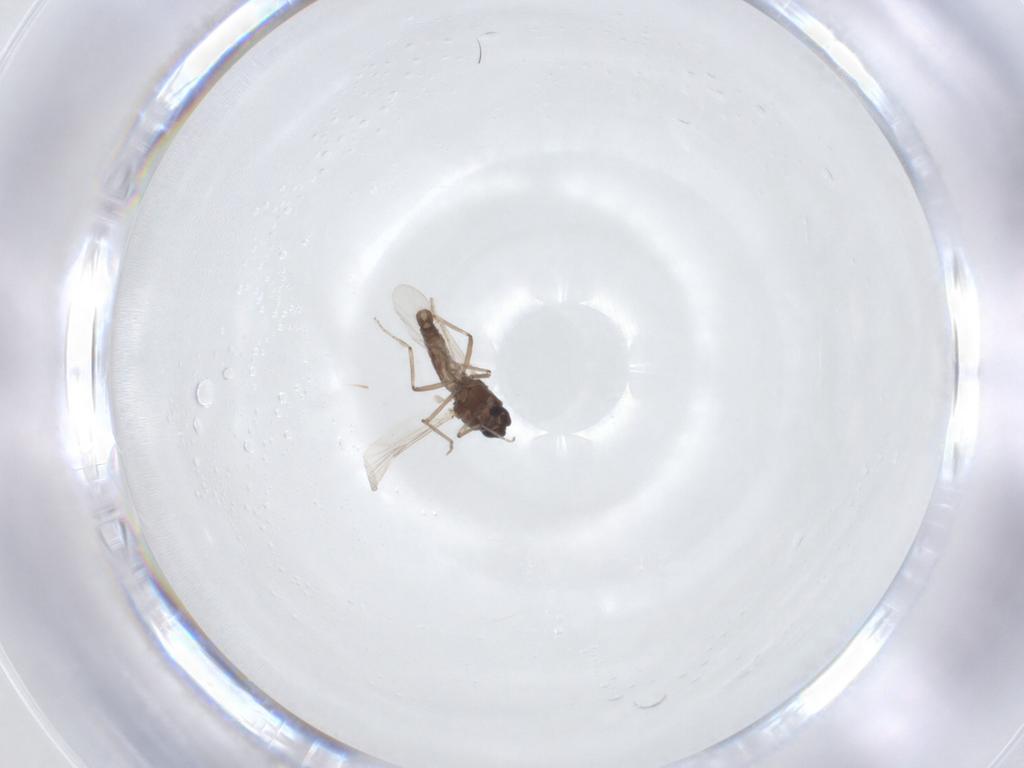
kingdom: Animalia
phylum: Arthropoda
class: Insecta
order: Diptera
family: Ceratopogonidae
